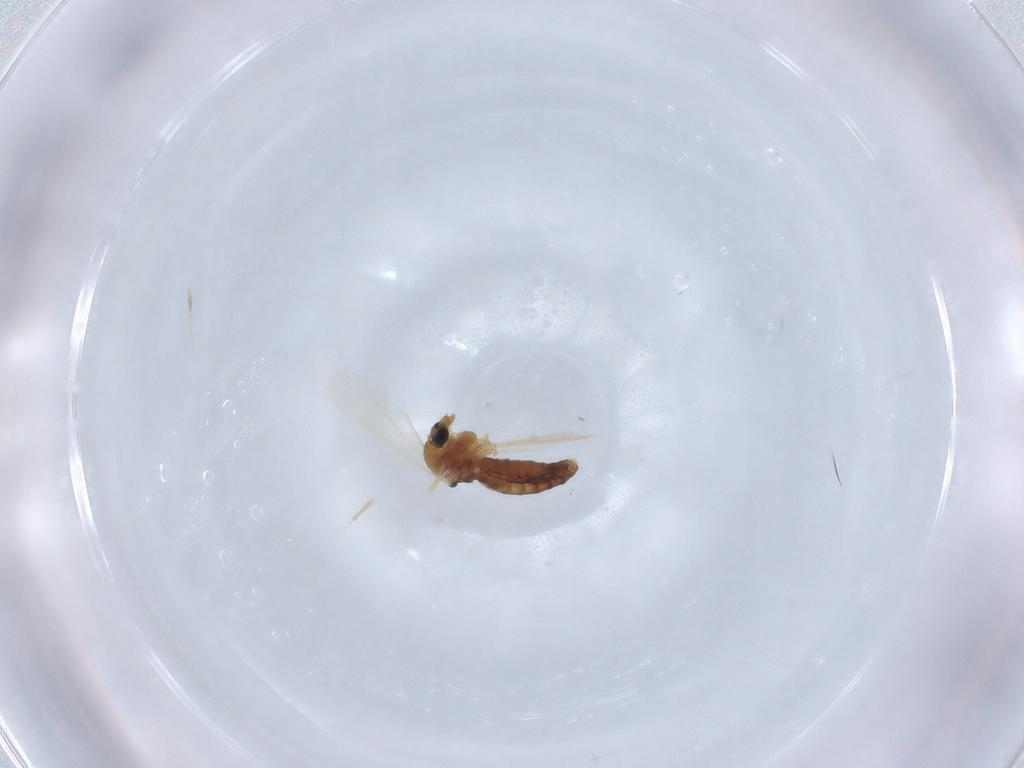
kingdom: Animalia
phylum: Arthropoda
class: Insecta
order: Diptera
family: Chironomidae
